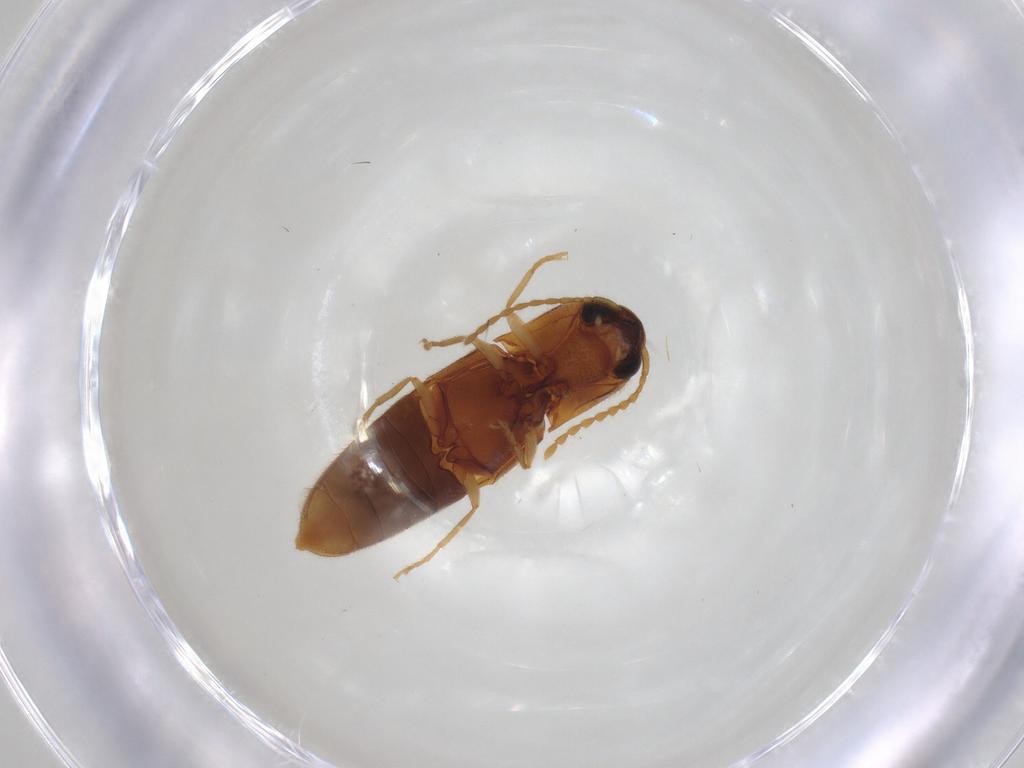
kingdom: Animalia
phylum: Arthropoda
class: Insecta
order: Coleoptera
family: Elateridae
